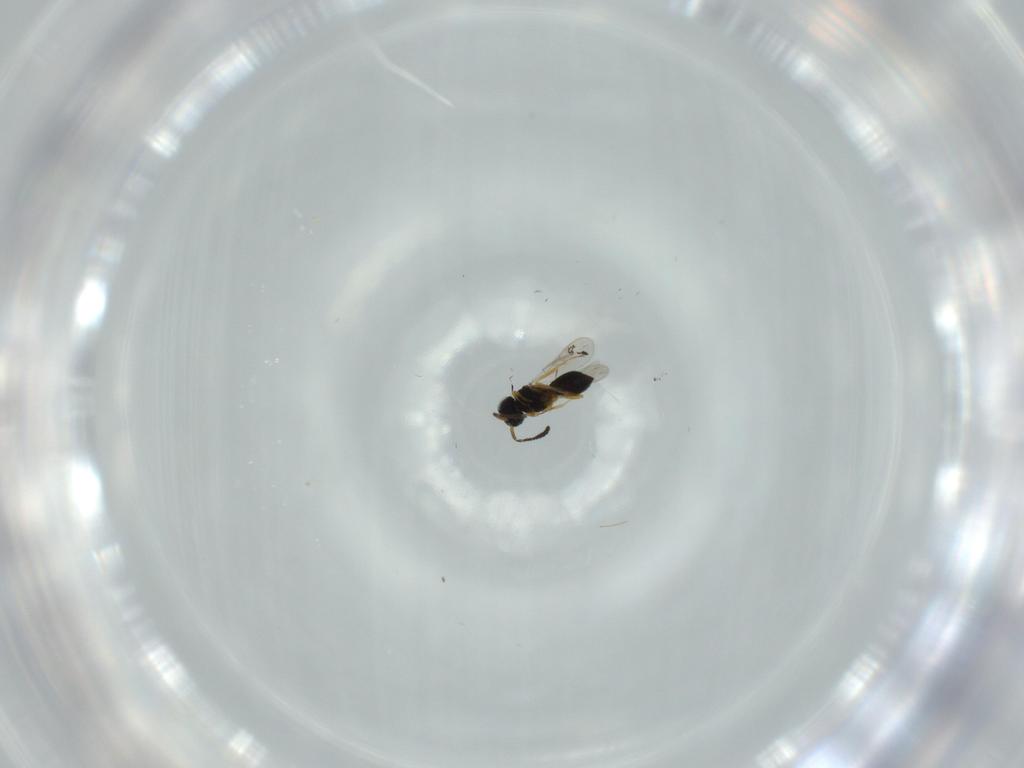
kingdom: Animalia
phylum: Arthropoda
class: Insecta
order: Hymenoptera
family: Scelionidae
